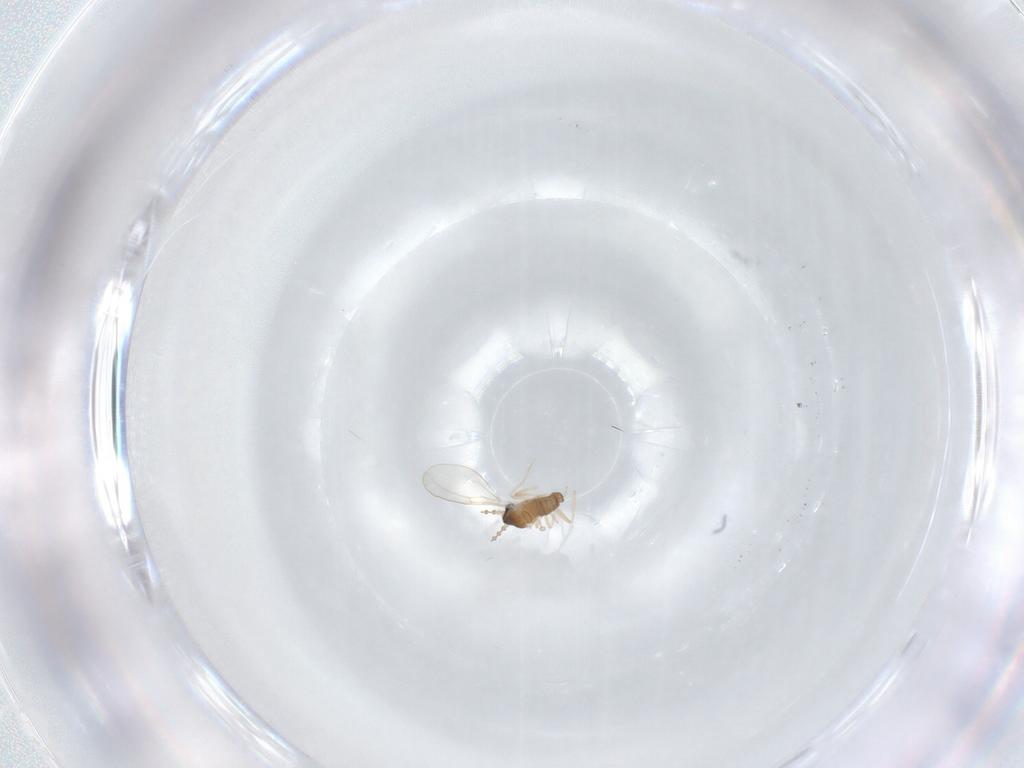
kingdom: Animalia
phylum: Arthropoda
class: Insecta
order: Diptera
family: Cecidomyiidae
